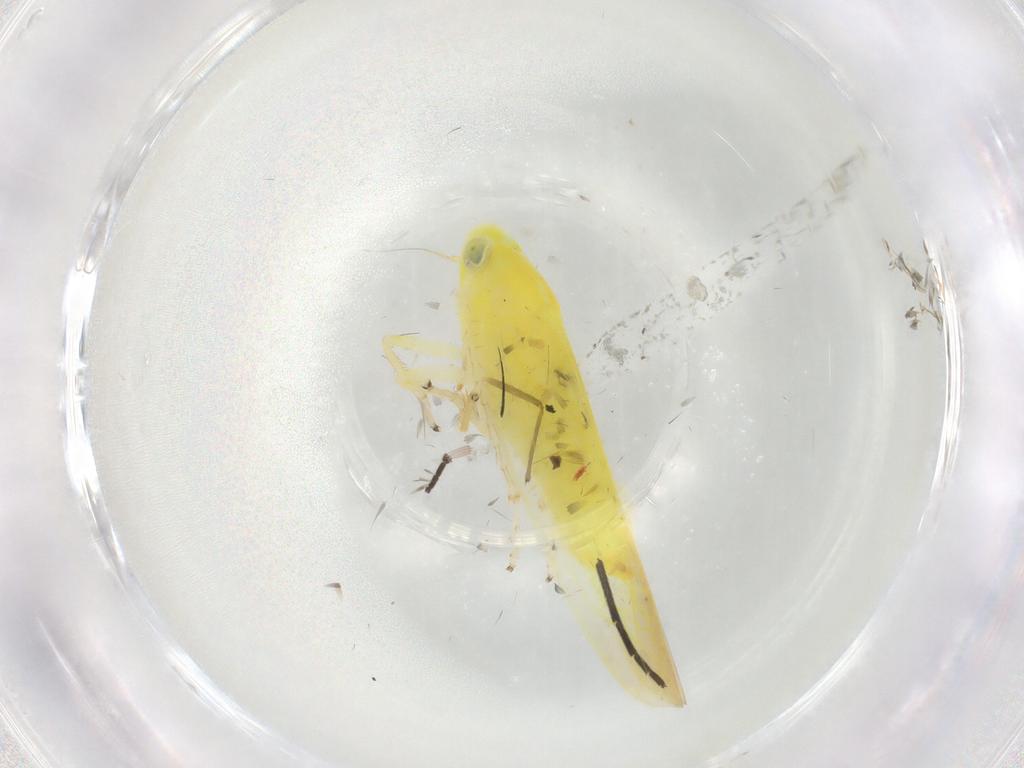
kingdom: Animalia
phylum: Arthropoda
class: Insecta
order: Hemiptera
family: Cicadellidae
